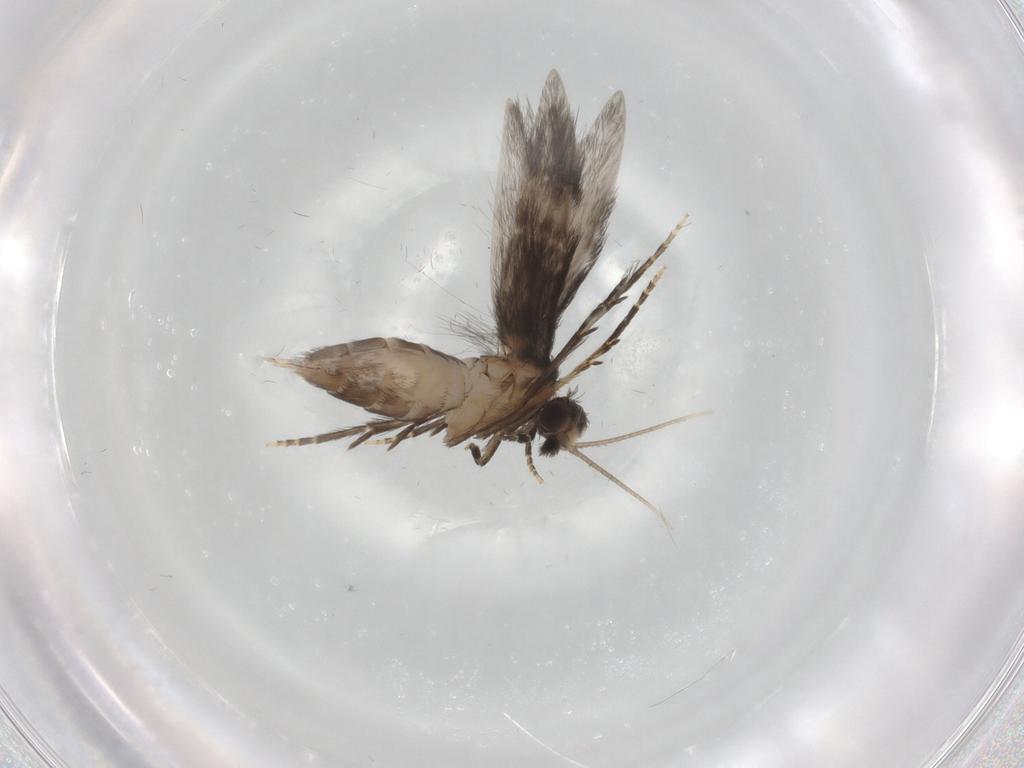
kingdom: Animalia
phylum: Arthropoda
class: Insecta
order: Trichoptera
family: Hydroptilidae
